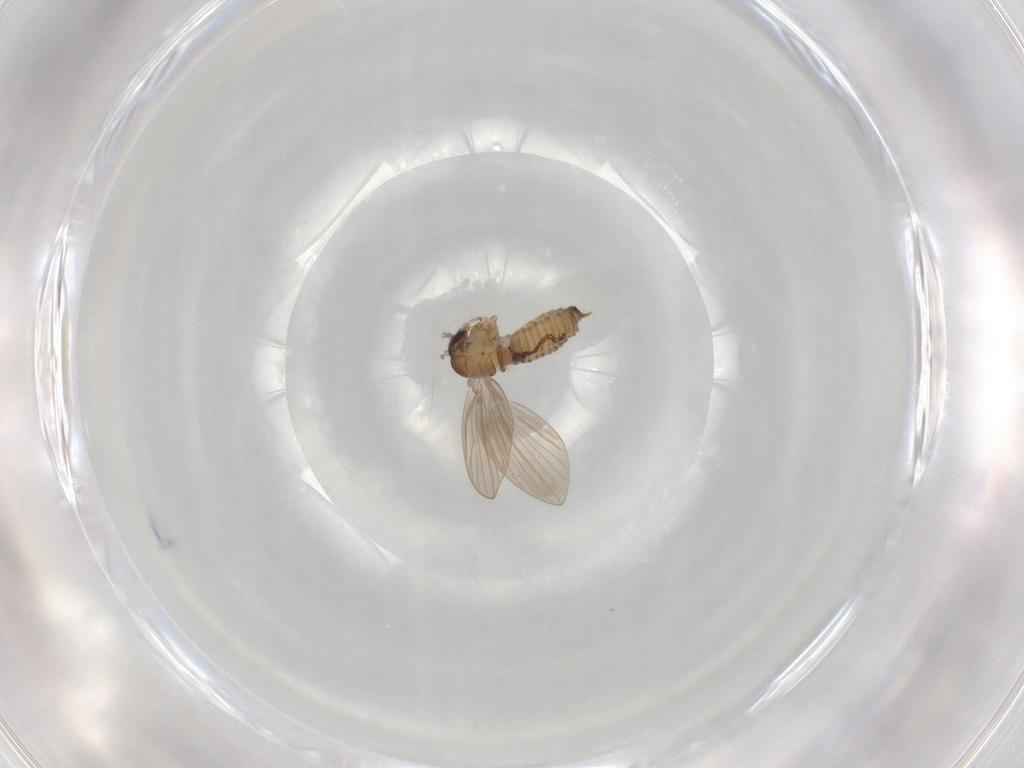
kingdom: Animalia
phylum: Arthropoda
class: Insecta
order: Diptera
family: Psychodidae
